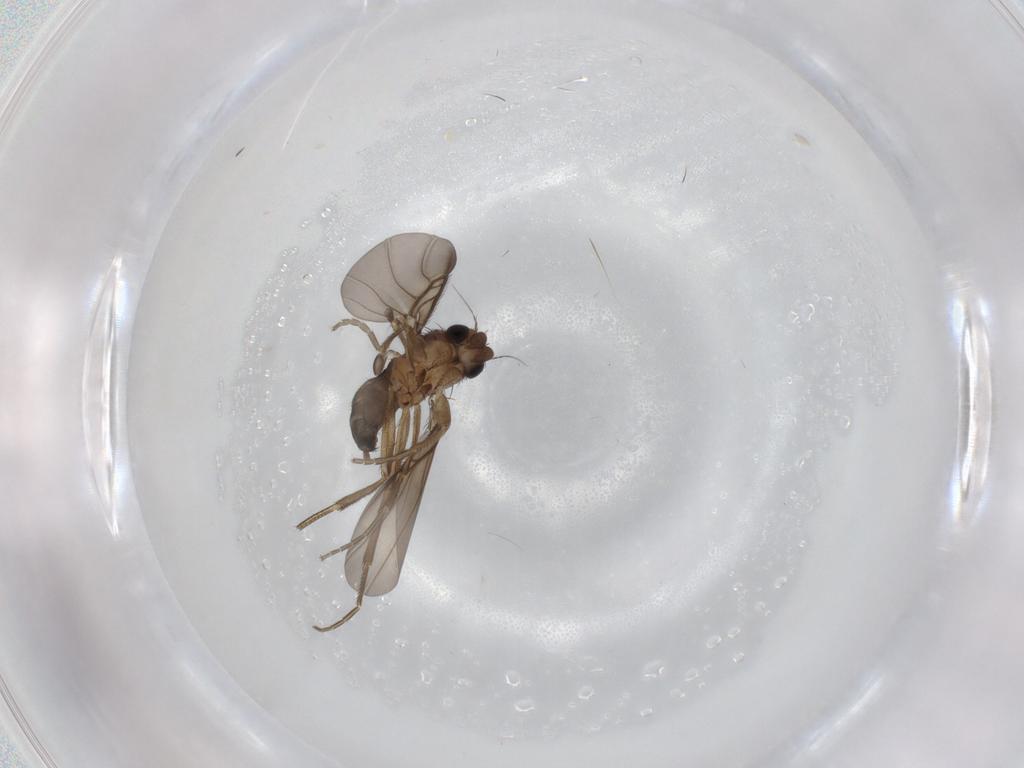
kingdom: Animalia
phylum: Arthropoda
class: Insecta
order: Diptera
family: Phoridae
